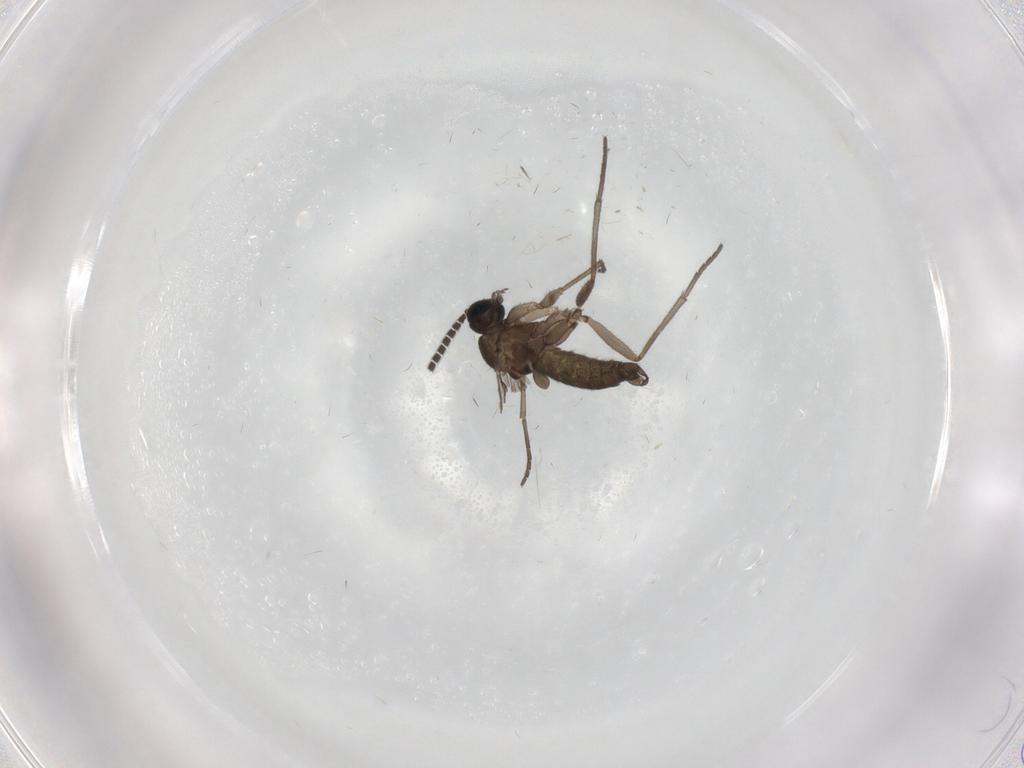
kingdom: Animalia
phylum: Arthropoda
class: Insecta
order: Diptera
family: Sciaridae
